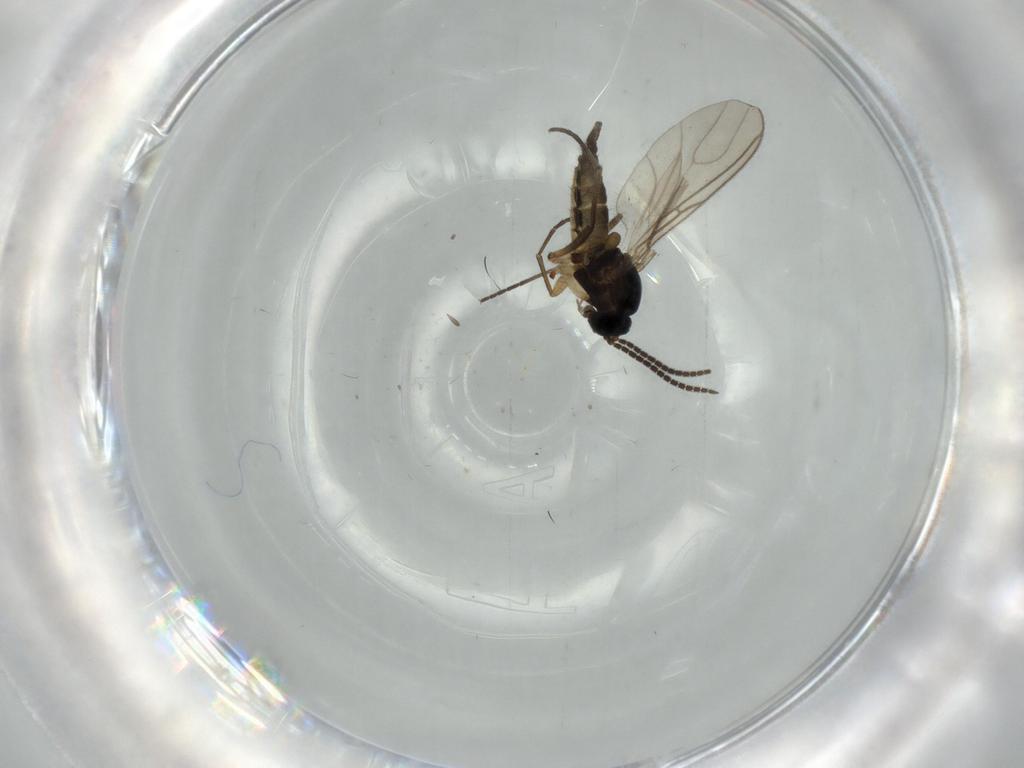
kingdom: Animalia
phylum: Arthropoda
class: Insecta
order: Diptera
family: Sciaridae
